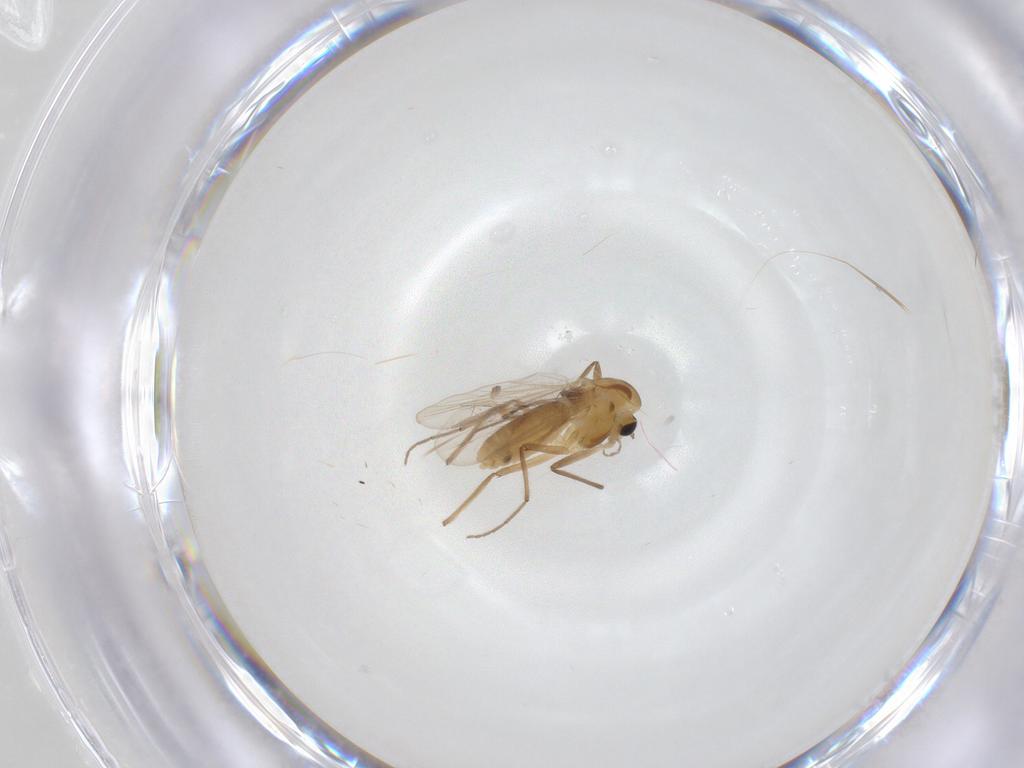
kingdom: Animalia
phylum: Arthropoda
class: Insecta
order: Diptera
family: Chironomidae
